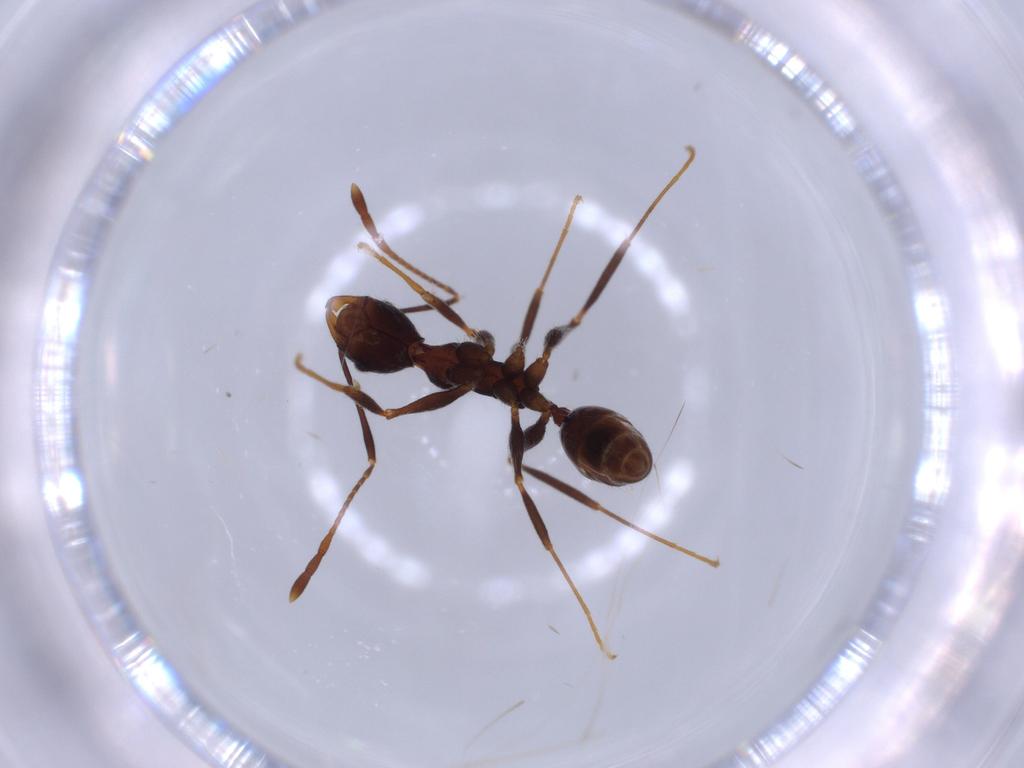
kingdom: Animalia
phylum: Arthropoda
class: Insecta
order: Hymenoptera
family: Formicidae
